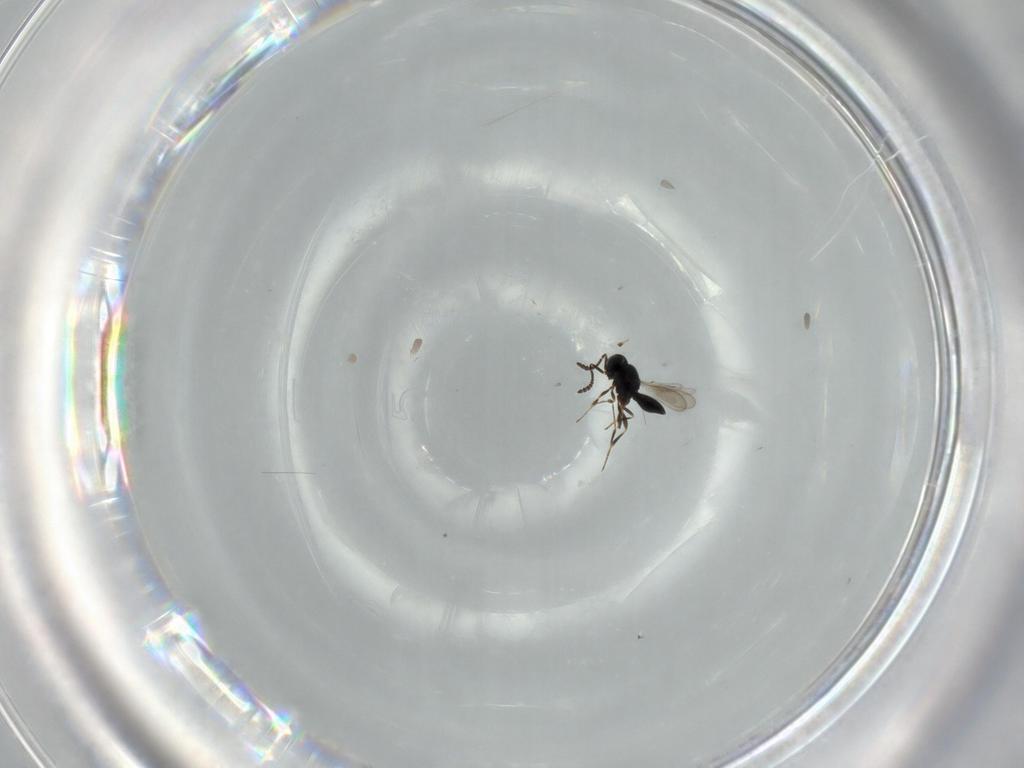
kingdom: Animalia
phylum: Arthropoda
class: Insecta
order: Hymenoptera
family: Scelionidae
